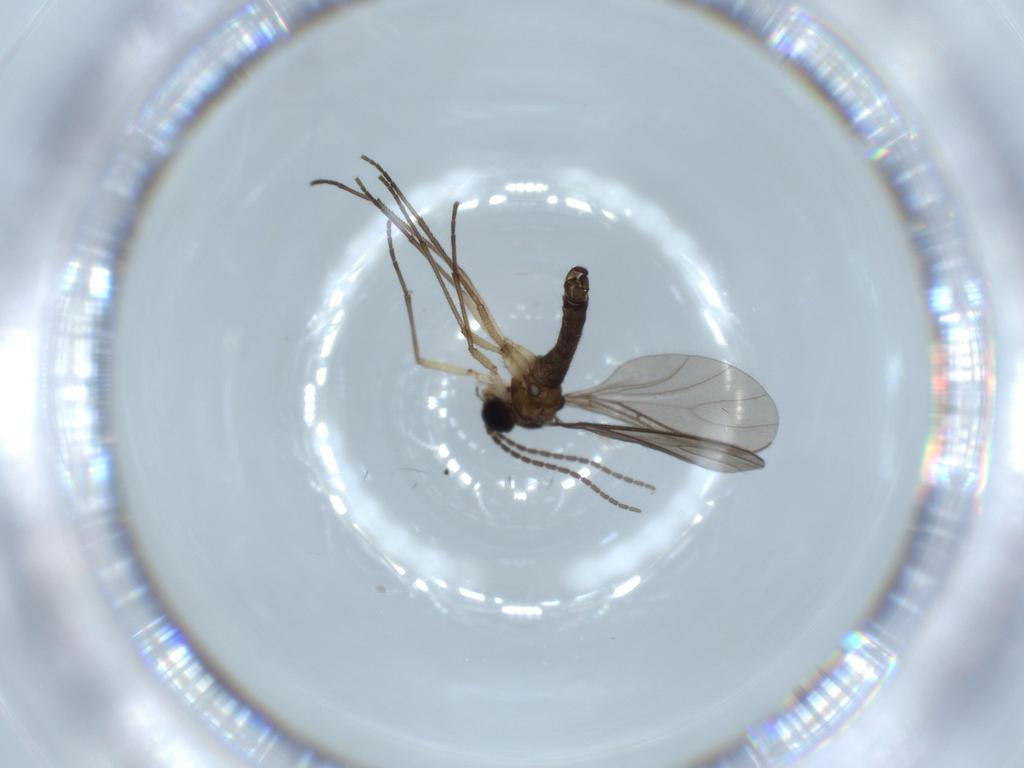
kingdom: Animalia
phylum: Arthropoda
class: Insecta
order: Diptera
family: Sciaridae
